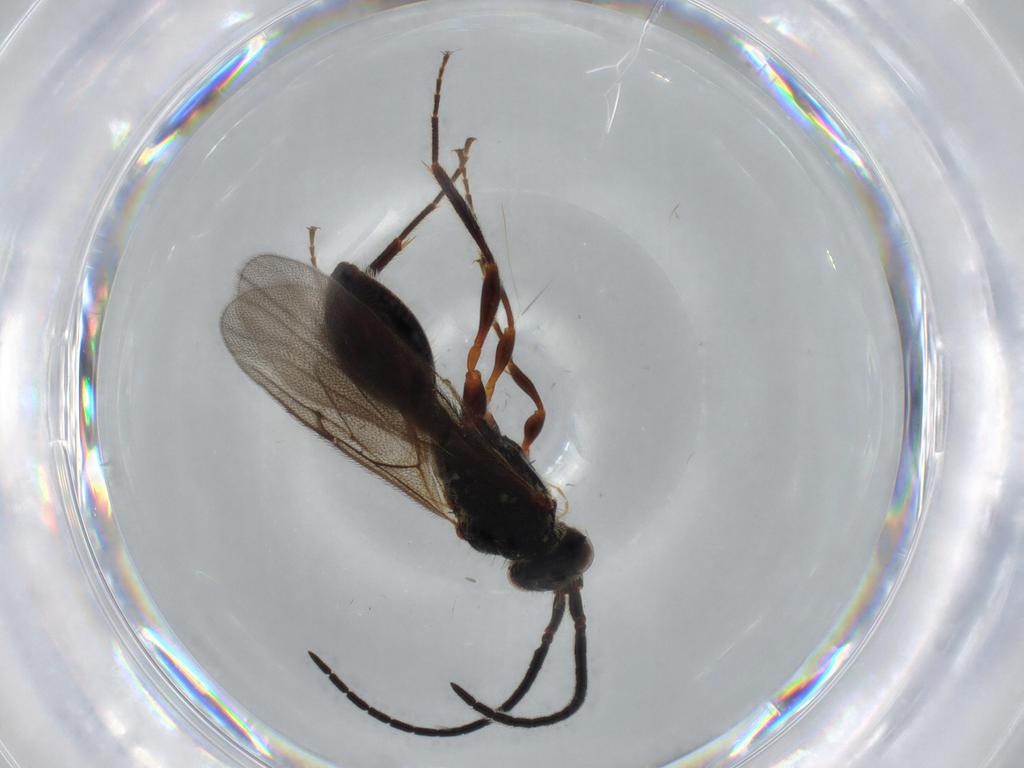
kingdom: Animalia
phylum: Arthropoda
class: Insecta
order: Hymenoptera
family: Diapriidae
